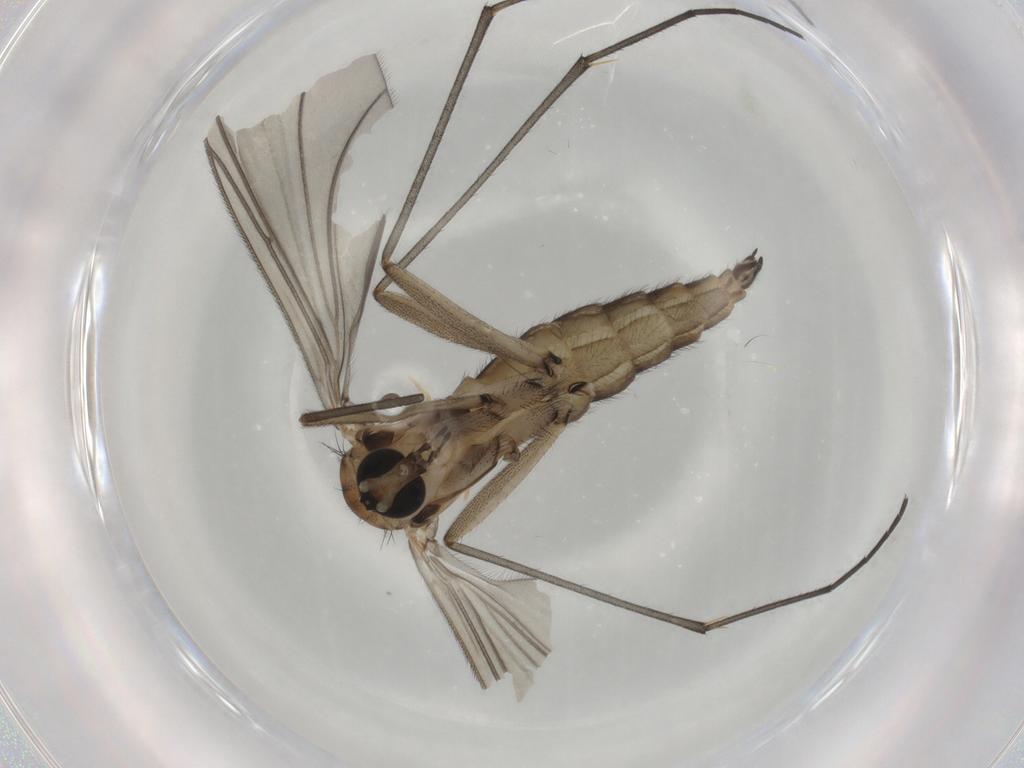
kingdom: Animalia
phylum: Arthropoda
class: Insecta
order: Diptera
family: Sciaridae
